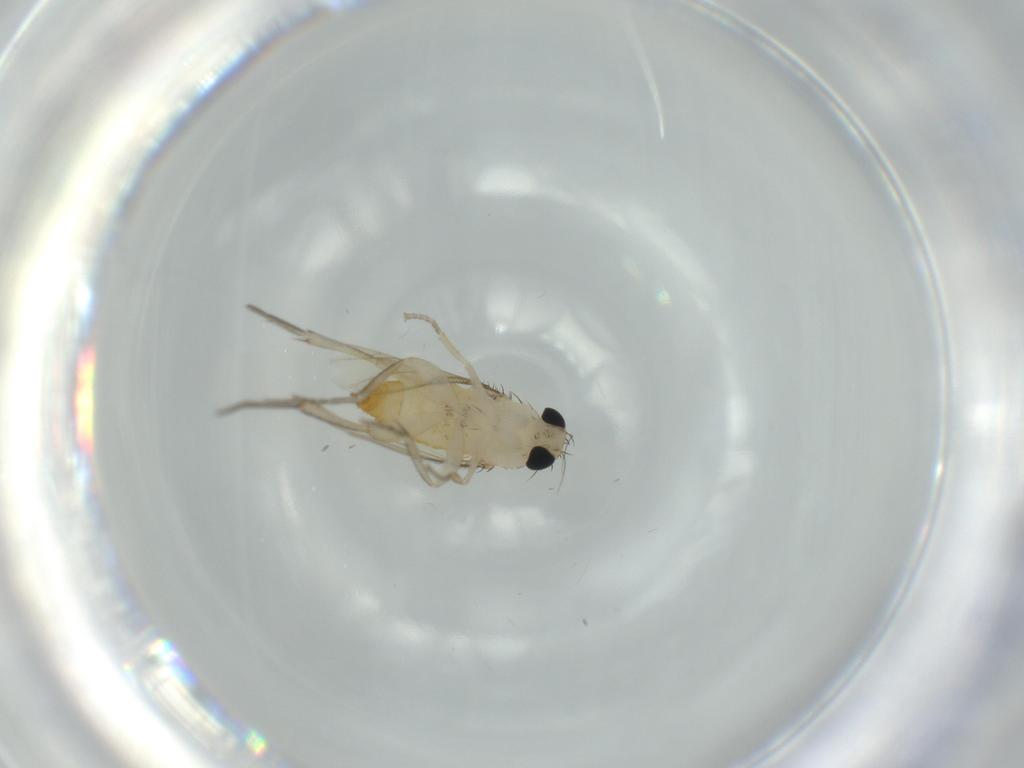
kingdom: Animalia
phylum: Arthropoda
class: Insecta
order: Diptera
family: Phoridae
